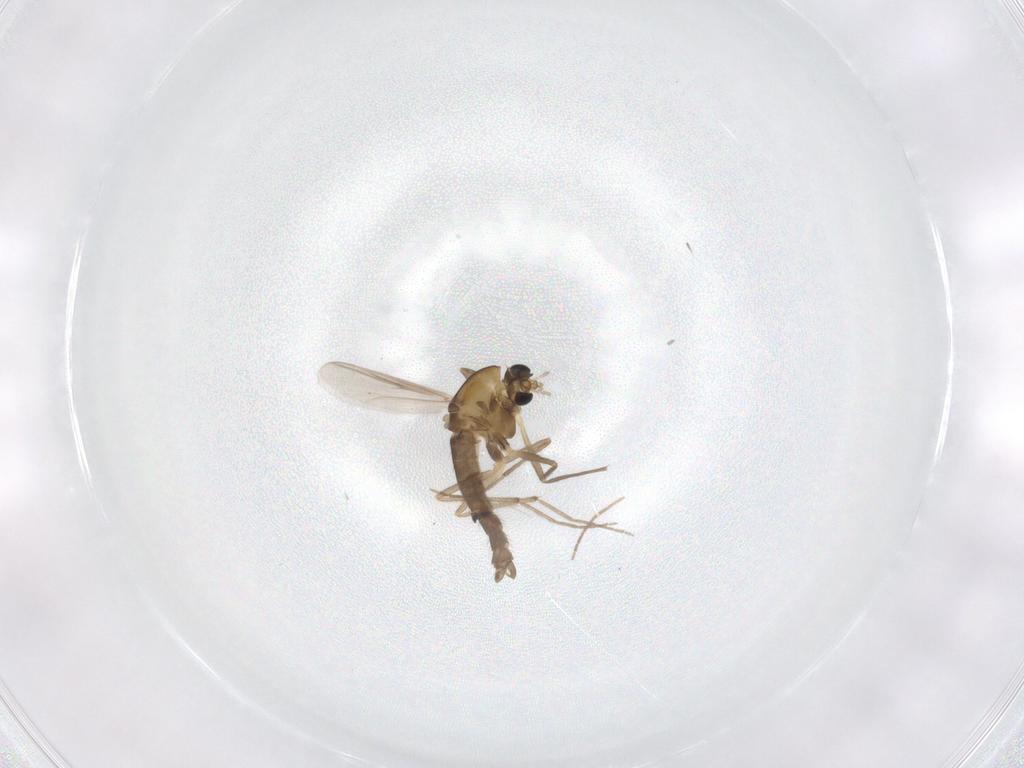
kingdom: Animalia
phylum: Arthropoda
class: Insecta
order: Diptera
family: Chironomidae
